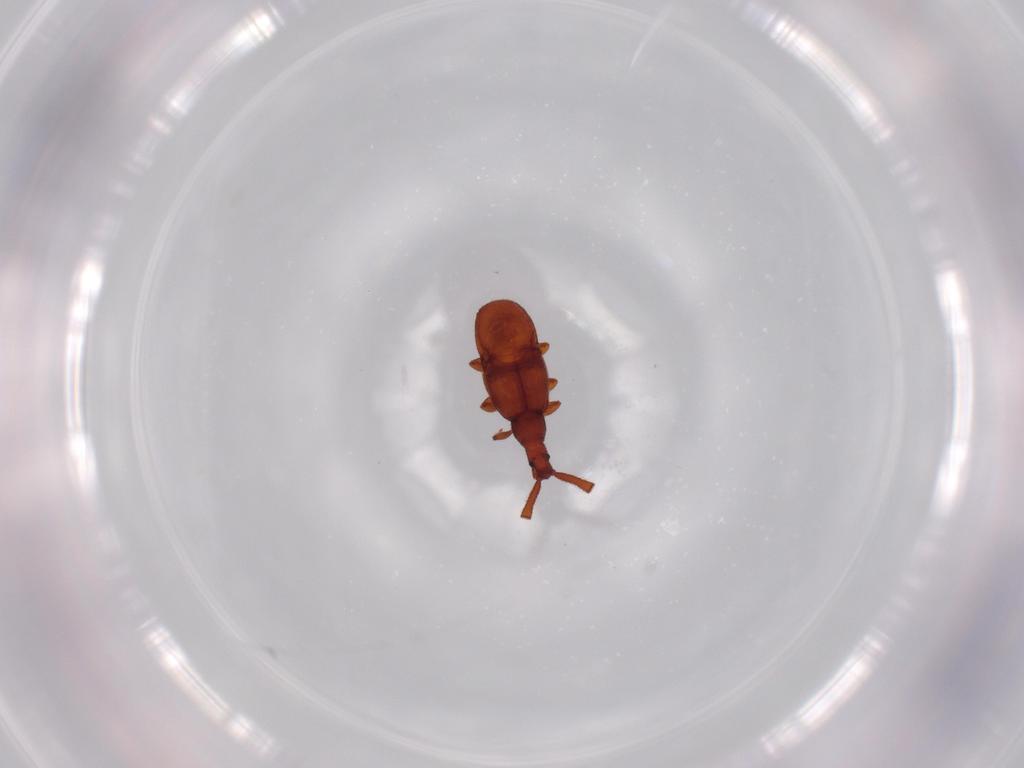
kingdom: Animalia
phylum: Arthropoda
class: Insecta
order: Coleoptera
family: Staphylinidae
